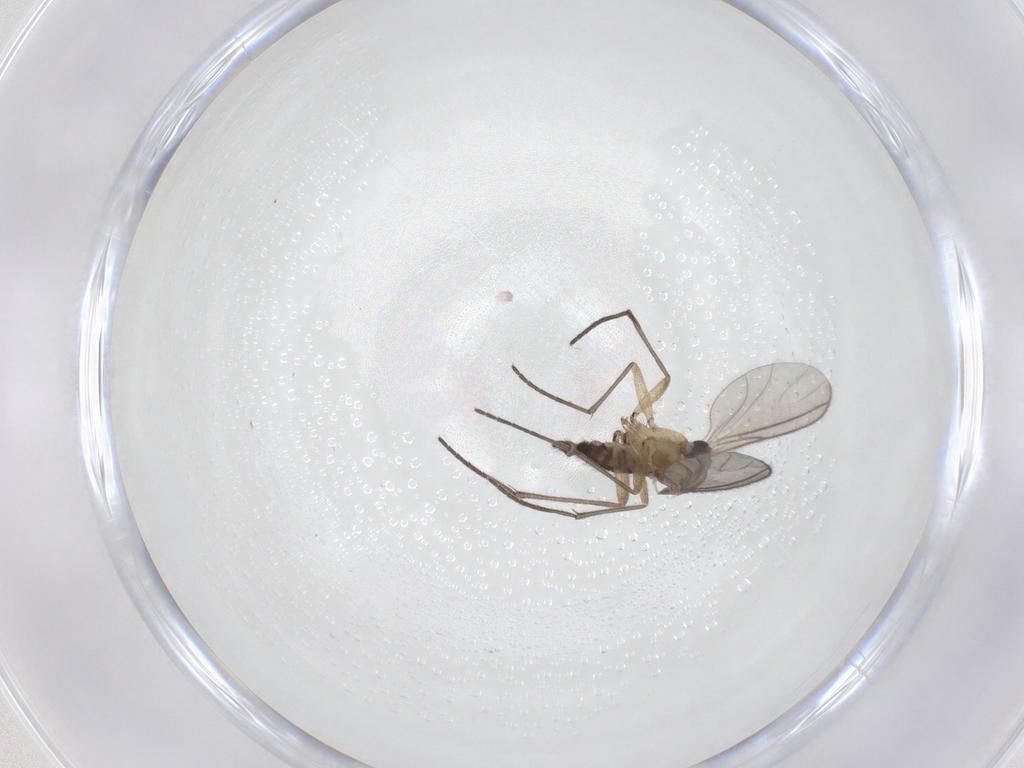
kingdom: Animalia
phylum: Arthropoda
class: Insecta
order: Diptera
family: Sciaridae
